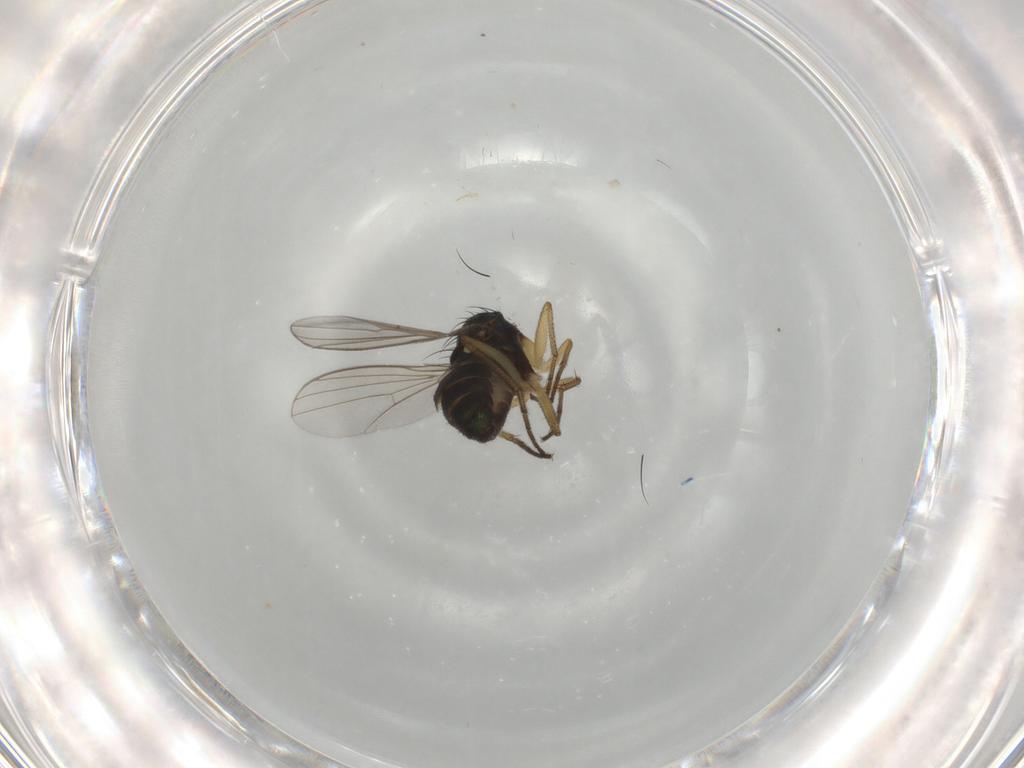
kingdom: Animalia
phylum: Arthropoda
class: Insecta
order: Diptera
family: Dolichopodidae
